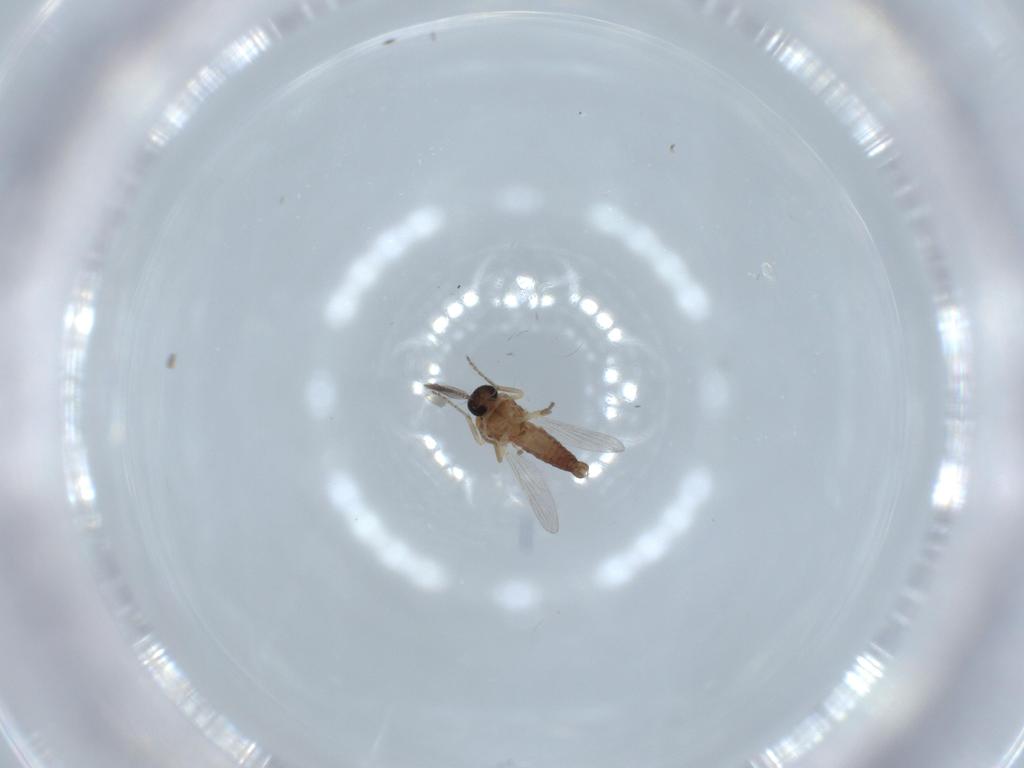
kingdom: Animalia
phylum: Arthropoda
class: Insecta
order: Diptera
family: Ceratopogonidae
